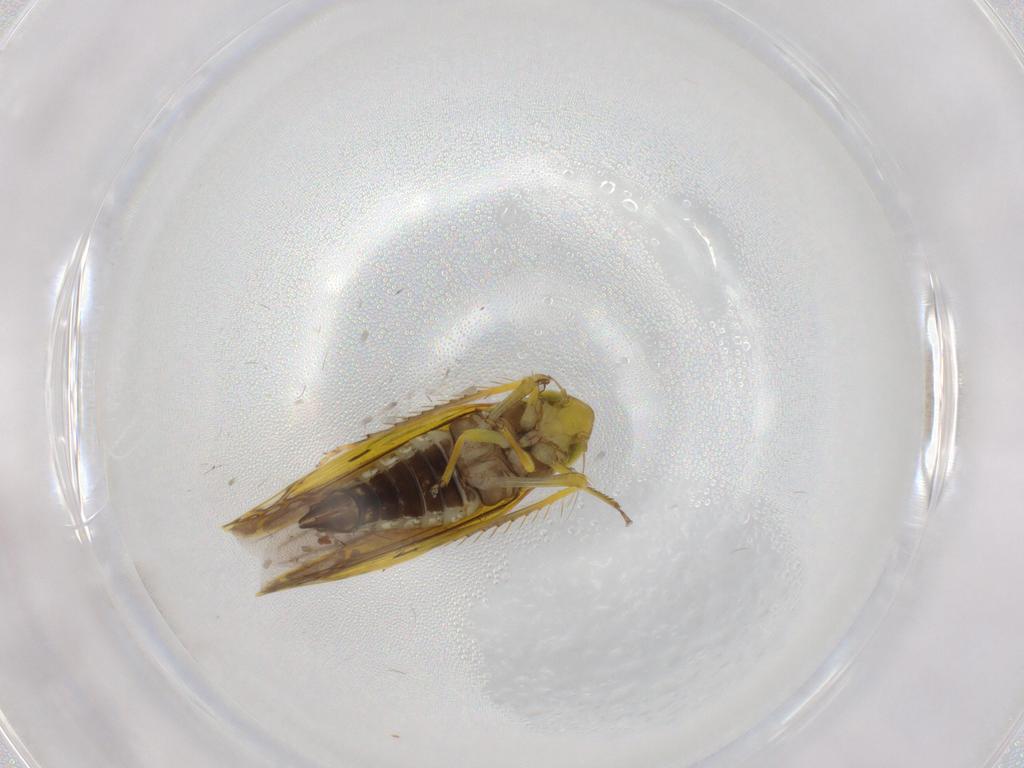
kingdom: Animalia
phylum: Arthropoda
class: Insecta
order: Hemiptera
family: Cicadellidae
